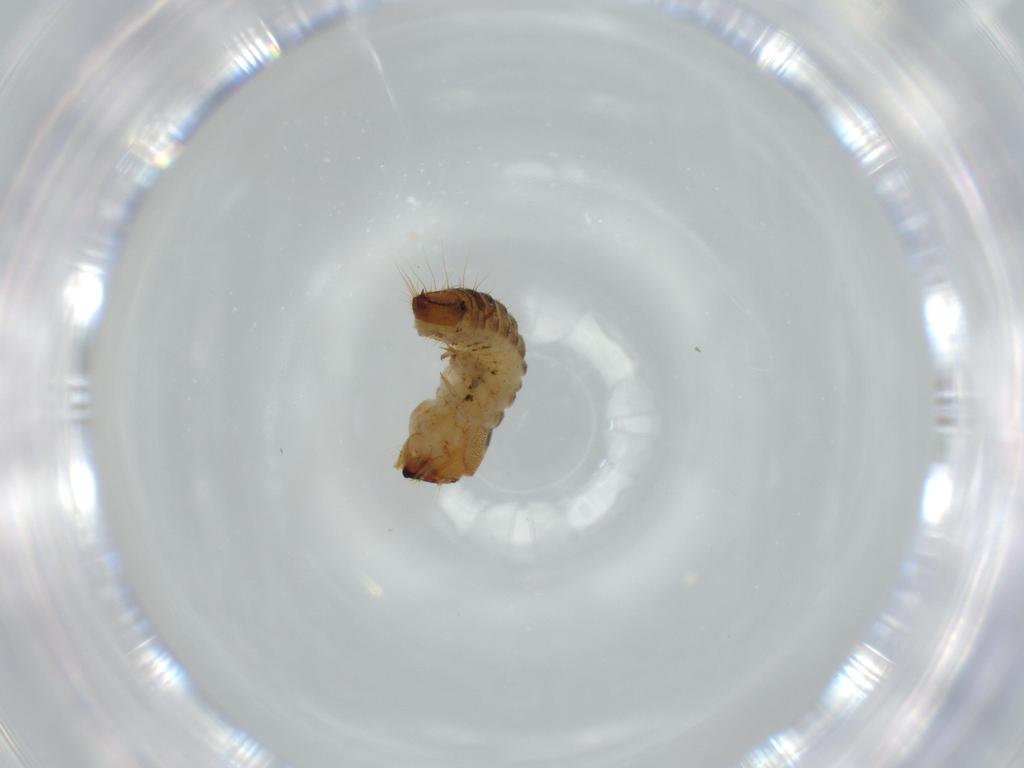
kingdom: Animalia
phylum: Arthropoda
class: Insecta
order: Coleoptera
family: Lymexylidae
